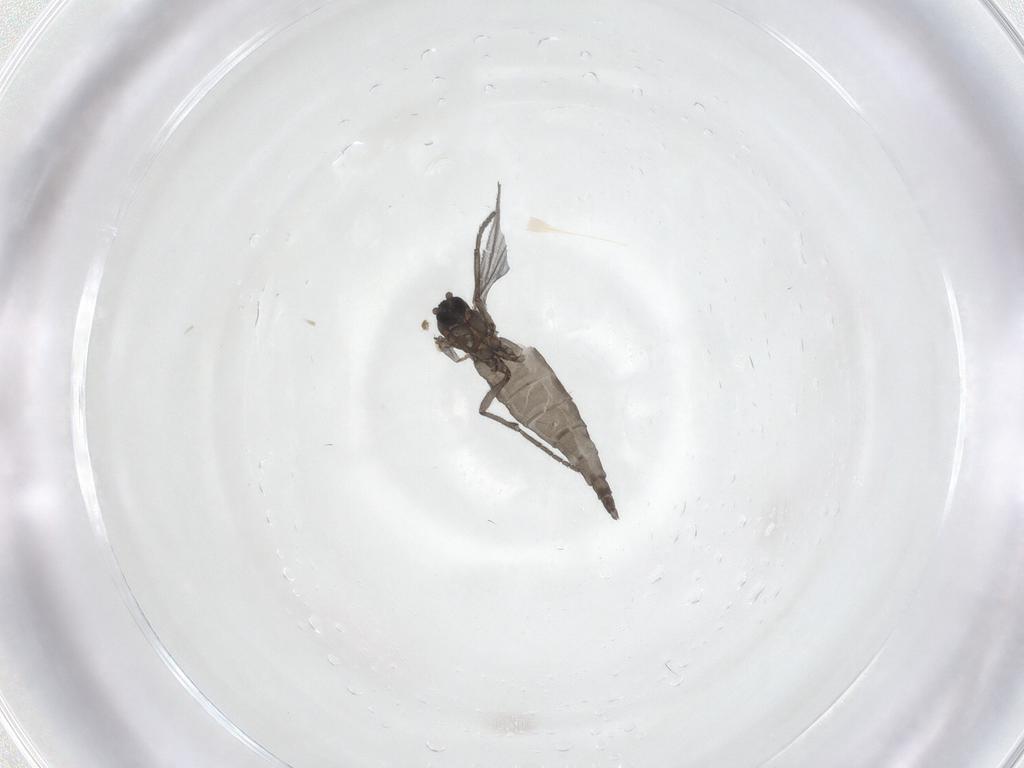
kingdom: Animalia
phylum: Arthropoda
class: Insecta
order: Diptera
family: Sciaridae
